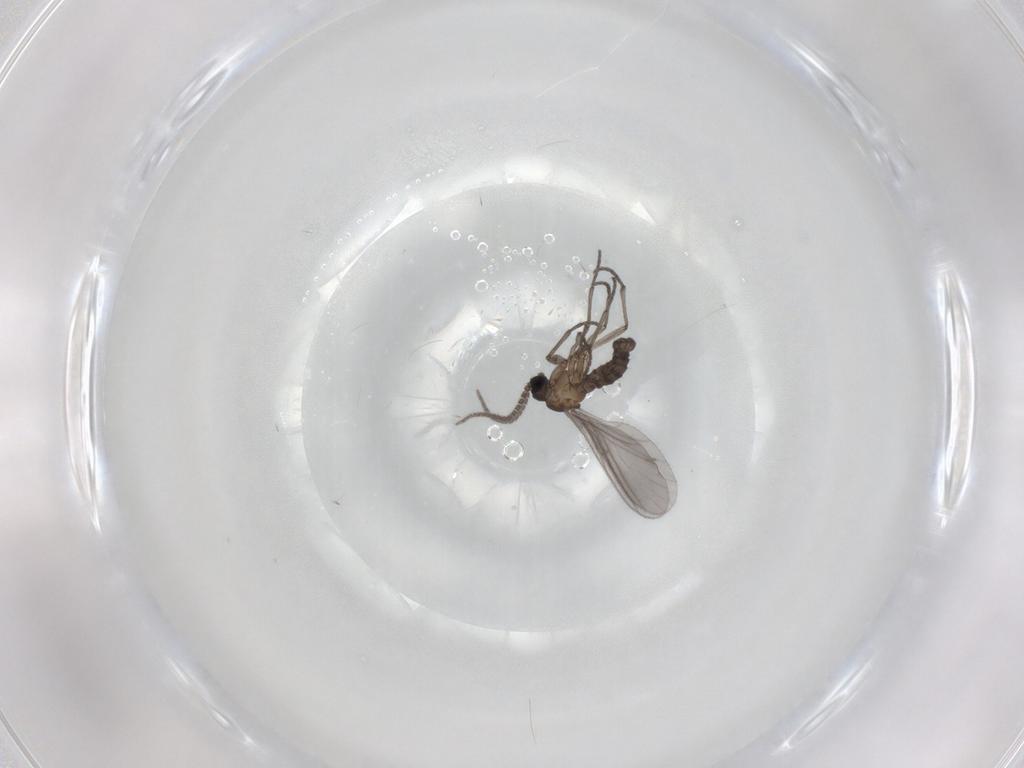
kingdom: Animalia
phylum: Arthropoda
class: Insecta
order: Diptera
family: Sciaridae
